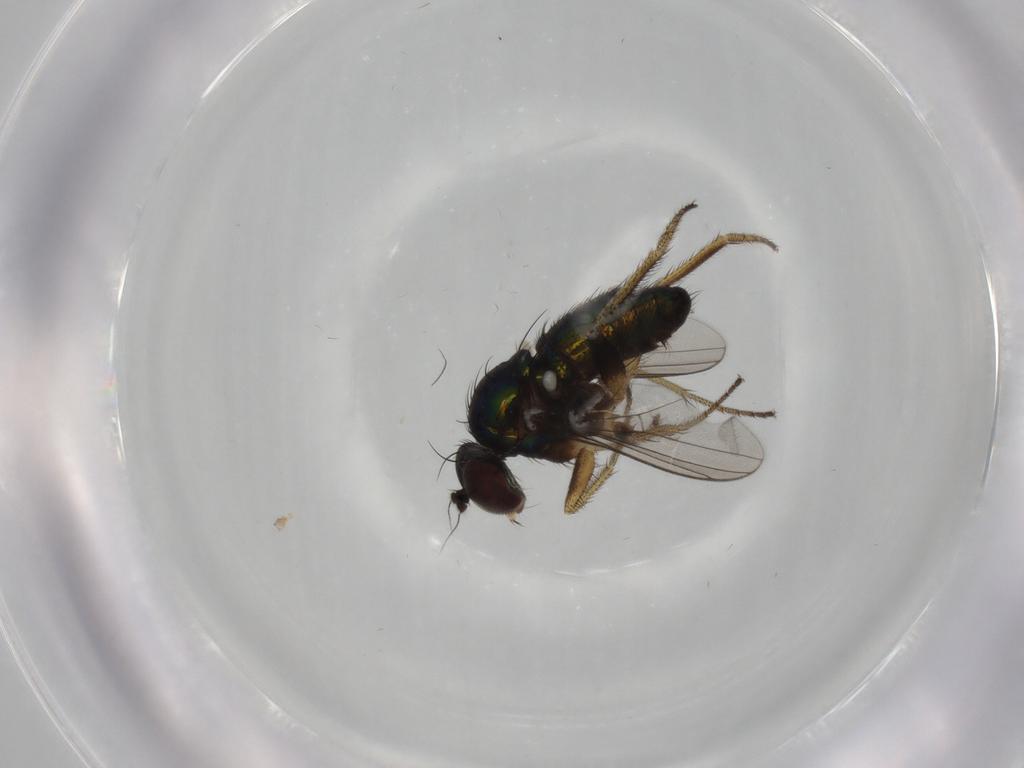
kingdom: Animalia
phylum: Arthropoda
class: Insecta
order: Diptera
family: Dolichopodidae
